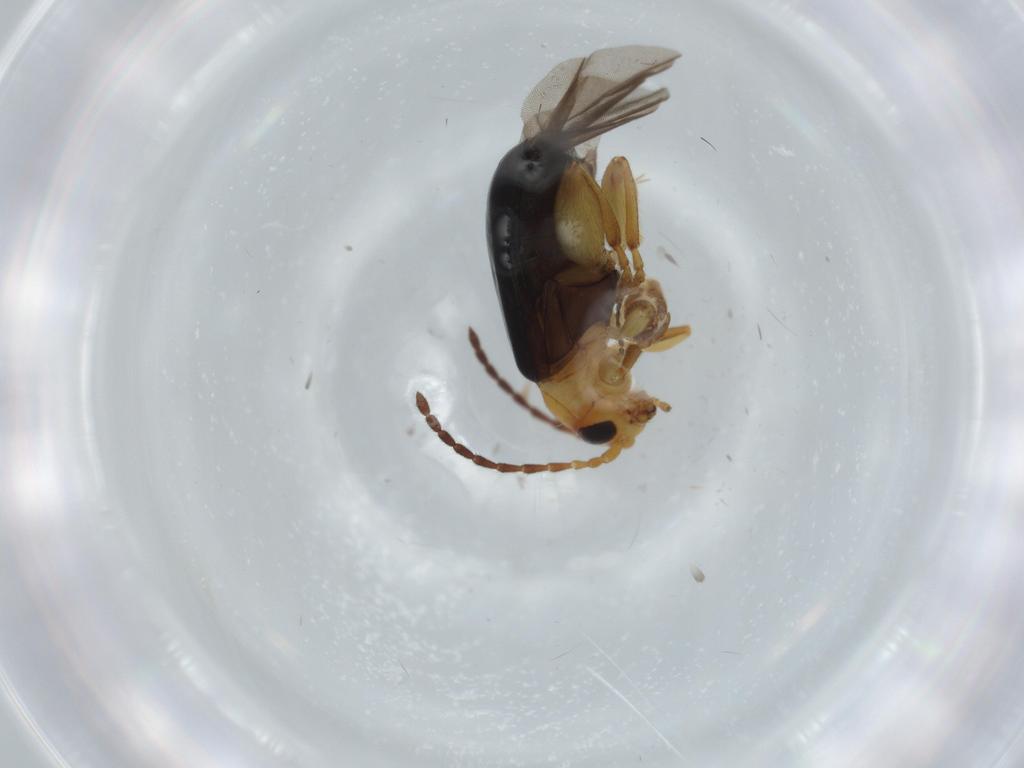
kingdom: Animalia
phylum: Arthropoda
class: Insecta
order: Coleoptera
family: Chrysomelidae
